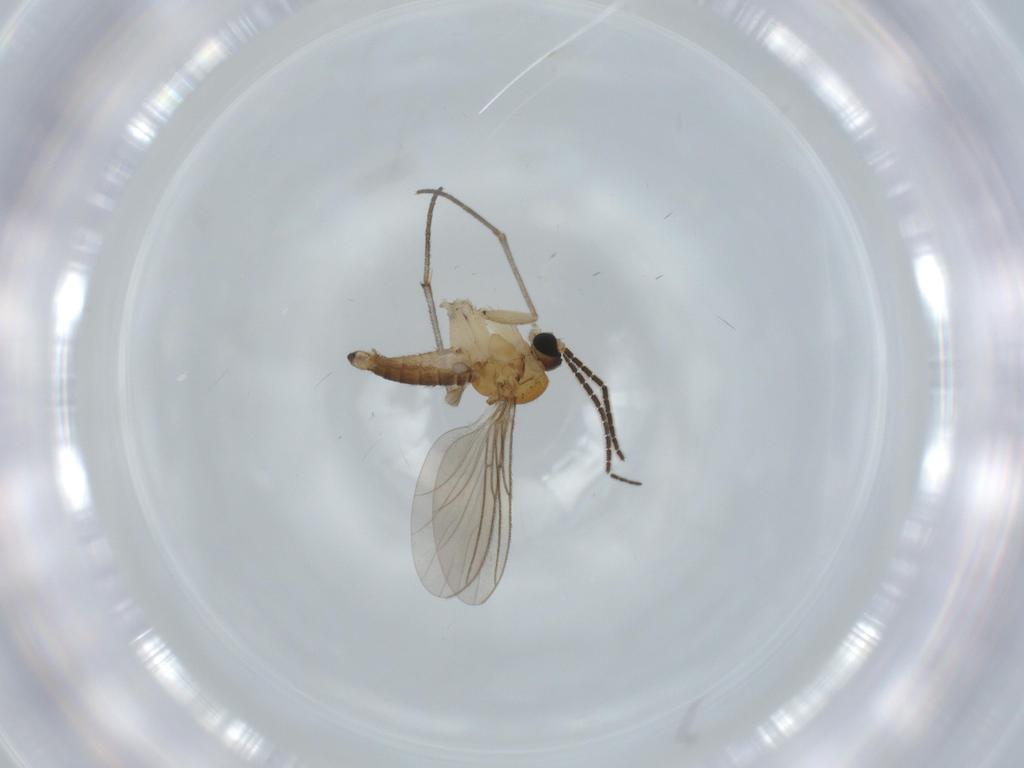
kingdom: Animalia
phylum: Arthropoda
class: Insecta
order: Diptera
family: Sciaridae
